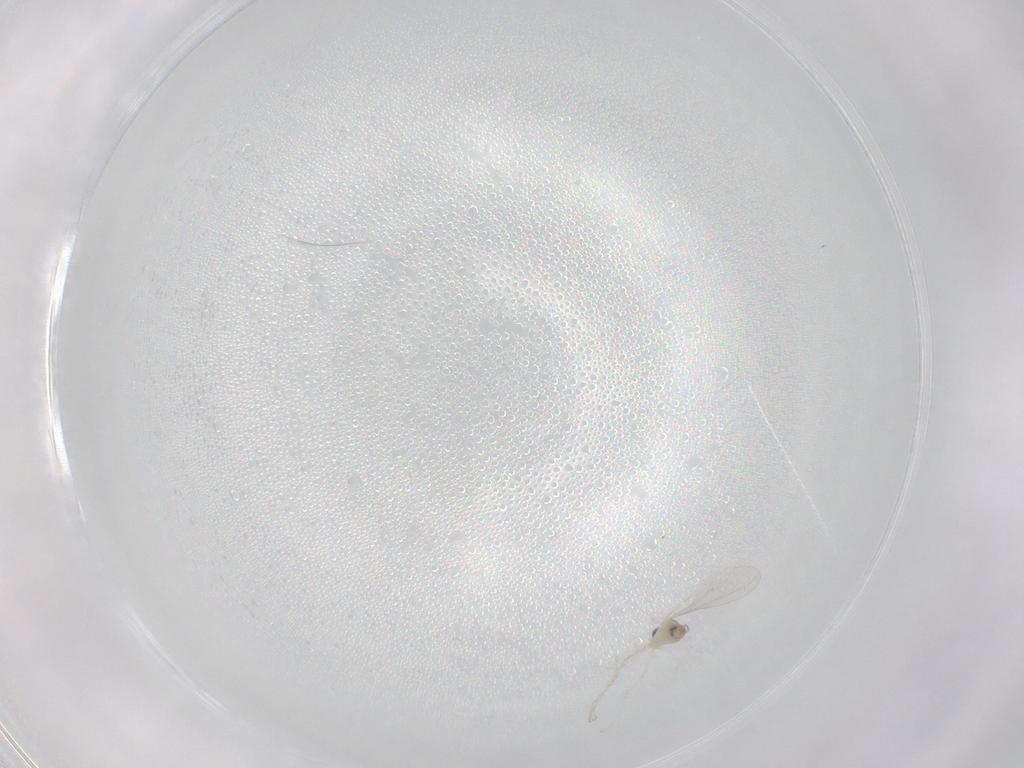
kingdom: Animalia
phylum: Arthropoda
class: Insecta
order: Diptera
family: Cecidomyiidae
